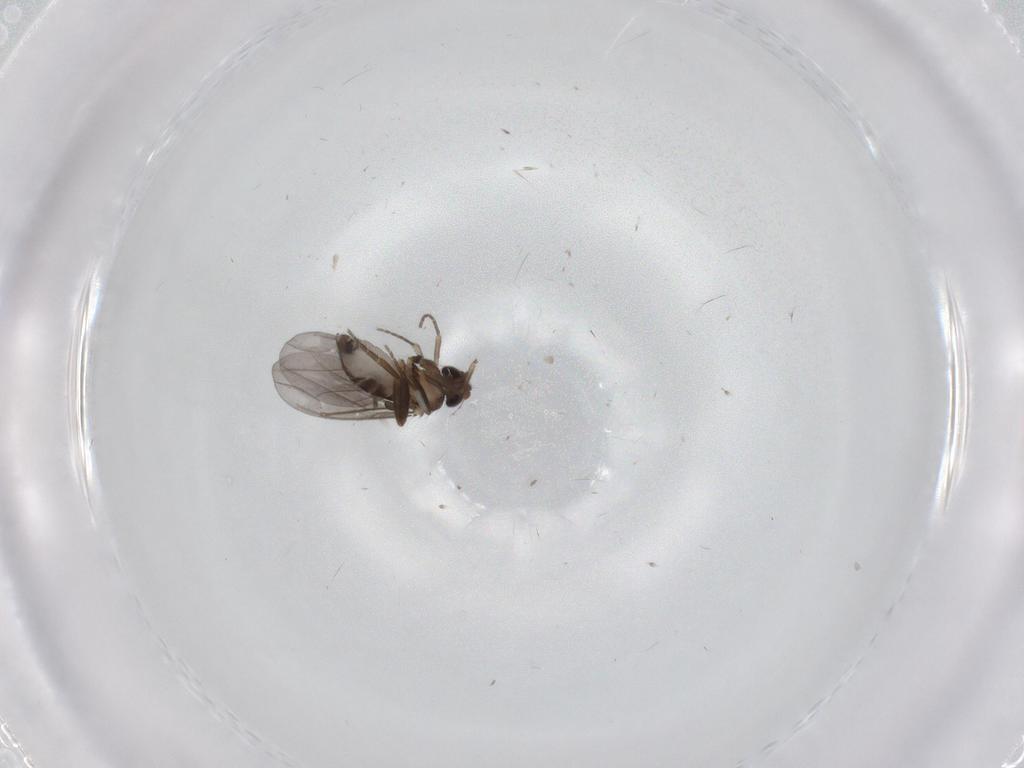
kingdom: Animalia
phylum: Arthropoda
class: Insecta
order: Diptera
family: Phoridae
